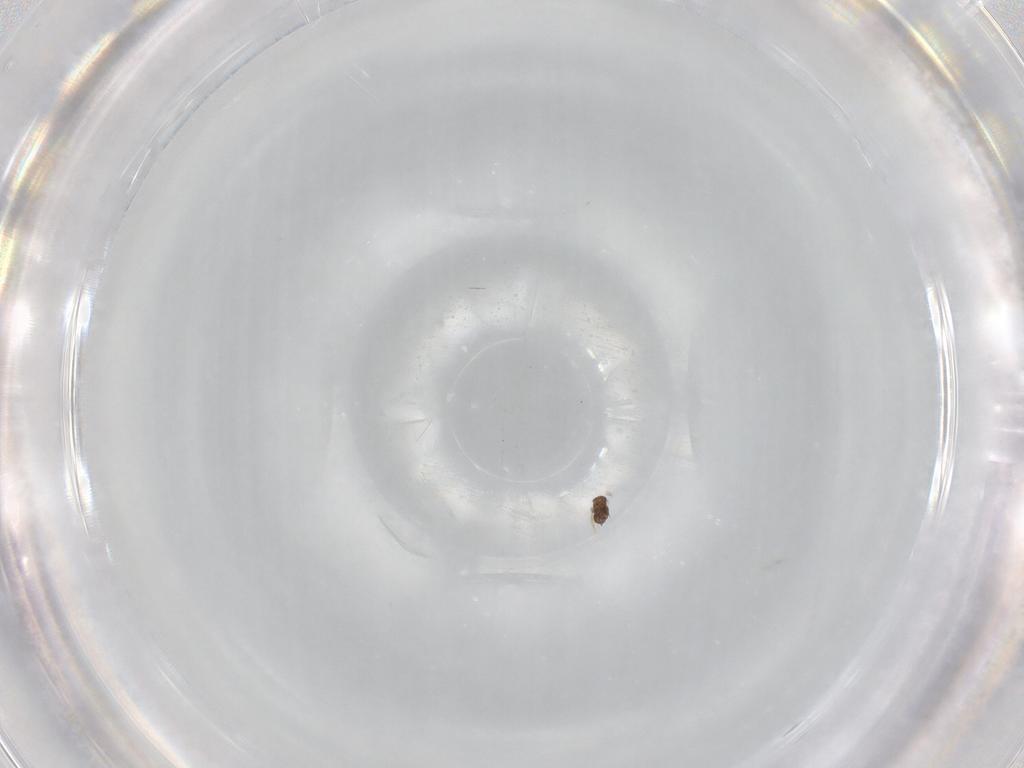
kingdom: Animalia
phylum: Arthropoda
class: Insecta
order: Hymenoptera
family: Mymaridae
